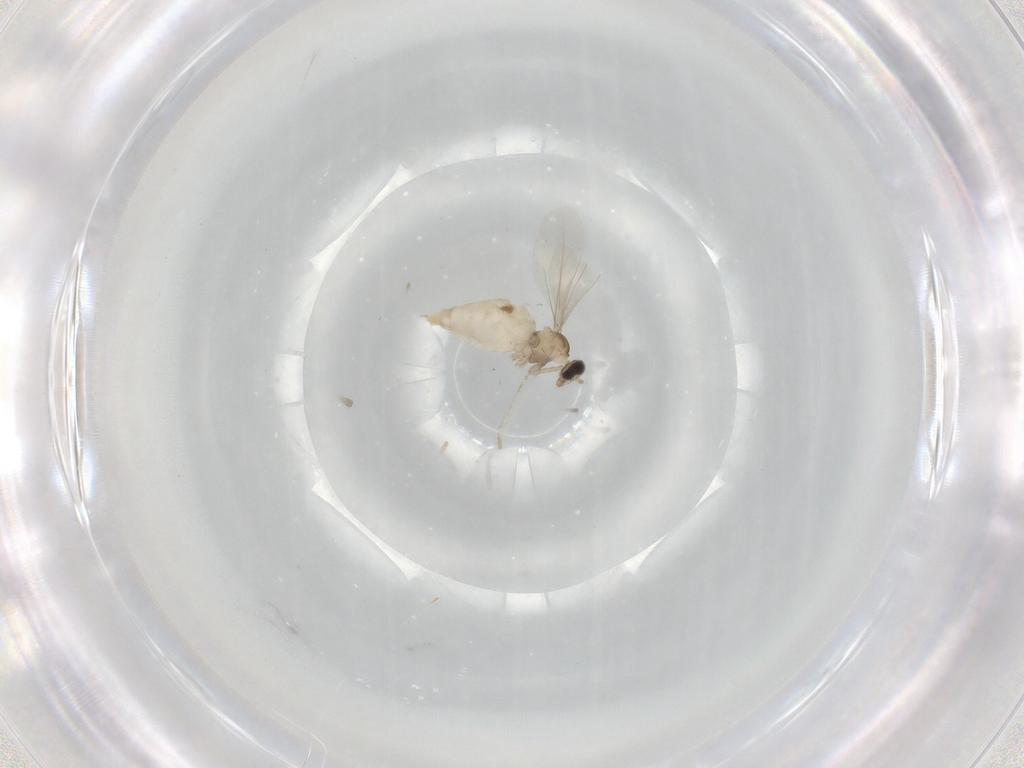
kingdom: Animalia
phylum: Arthropoda
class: Insecta
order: Diptera
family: Cecidomyiidae
